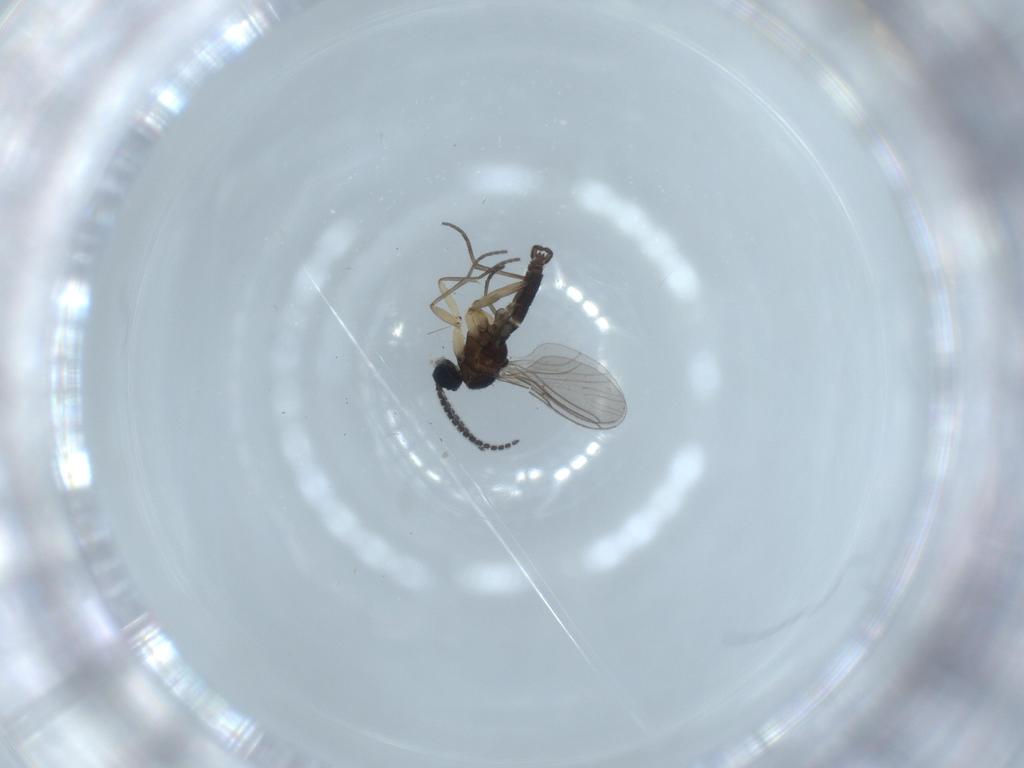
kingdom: Animalia
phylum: Arthropoda
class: Insecta
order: Diptera
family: Sciaridae
